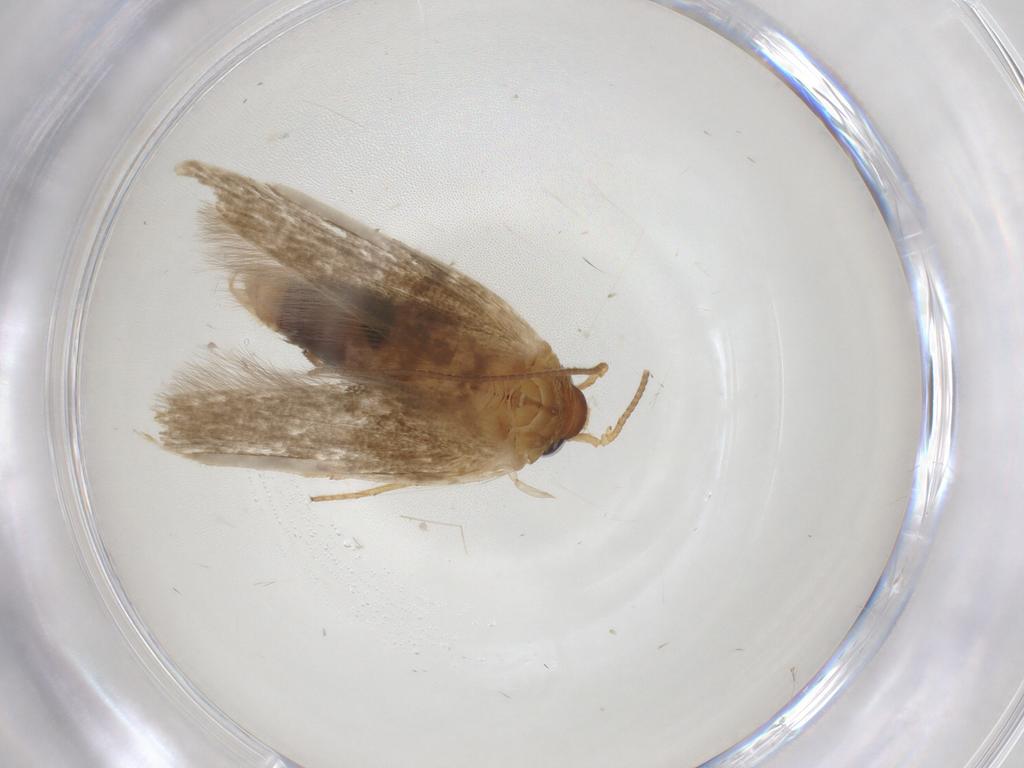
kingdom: Animalia
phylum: Arthropoda
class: Insecta
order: Lepidoptera
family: Blastobasidae
